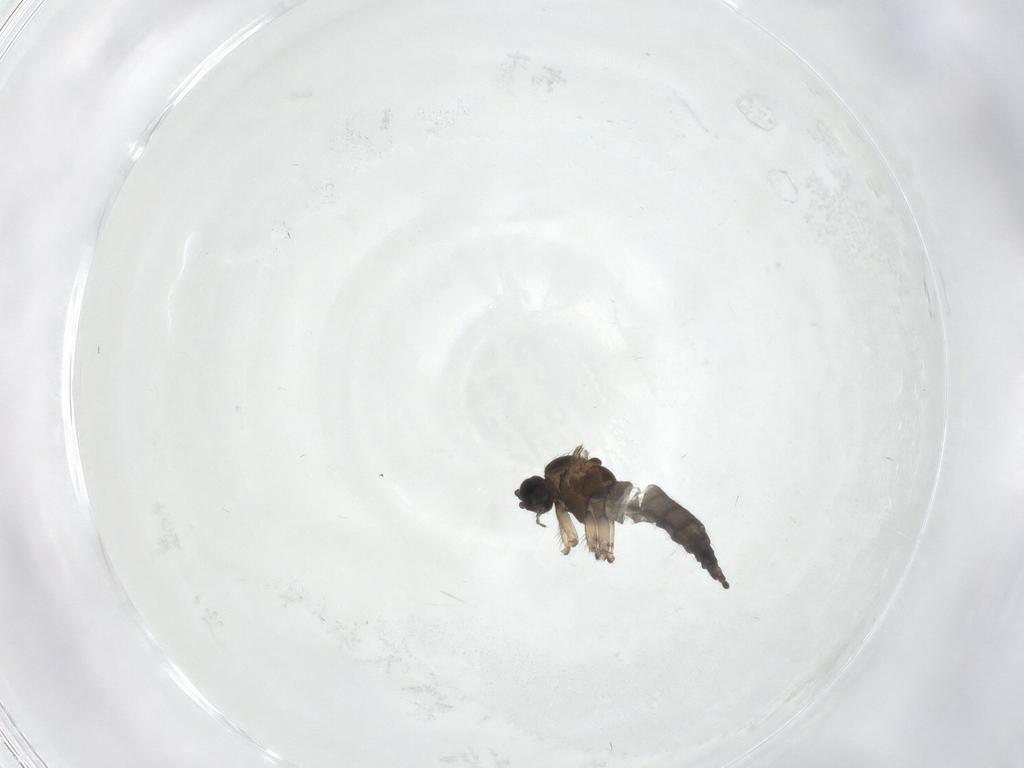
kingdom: Animalia
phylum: Arthropoda
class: Insecta
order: Diptera
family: Sciaridae
